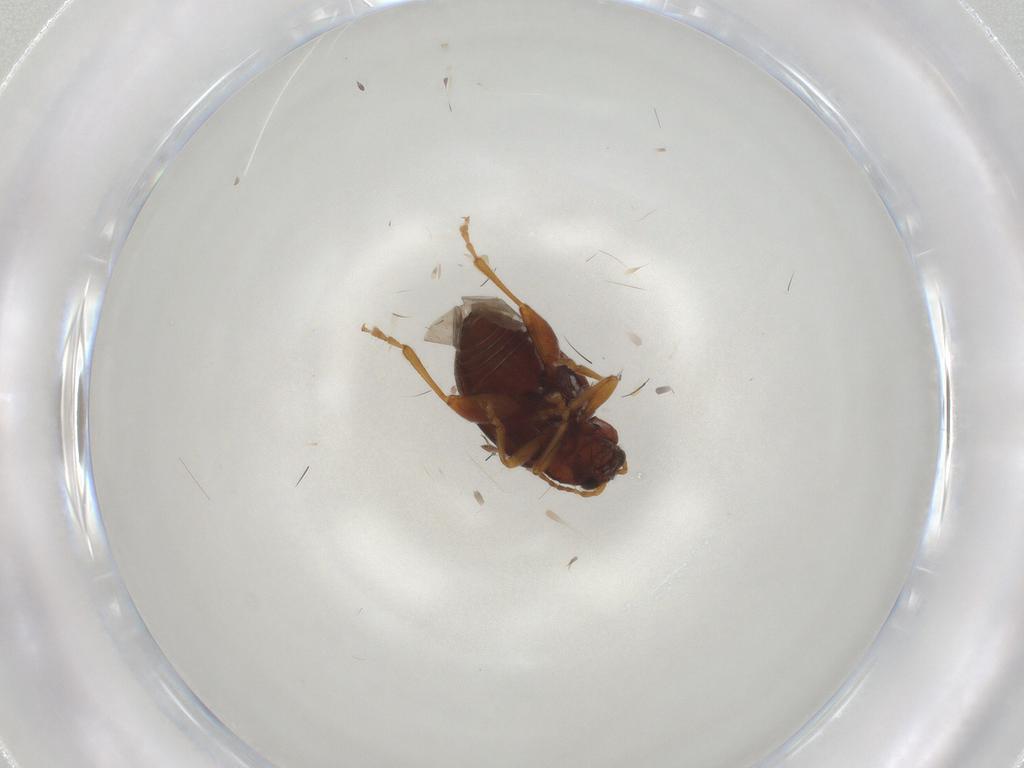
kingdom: Animalia
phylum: Arthropoda
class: Insecta
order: Coleoptera
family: Chrysomelidae
